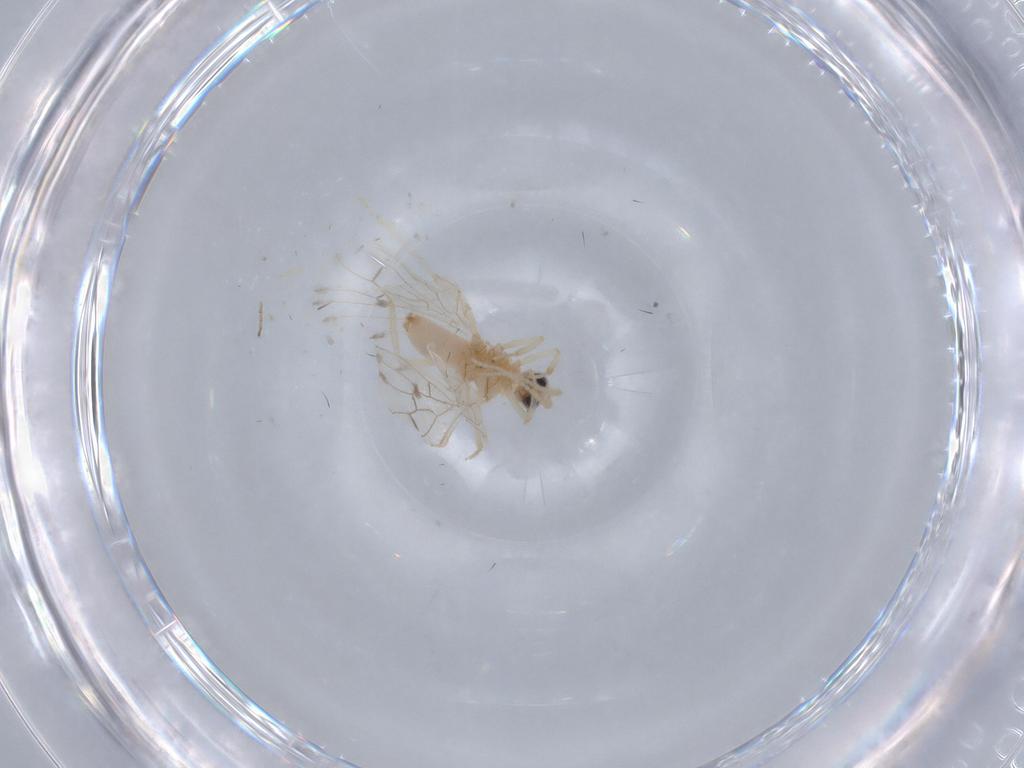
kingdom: Animalia
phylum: Arthropoda
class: Insecta
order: Neuroptera
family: Coniopterygidae
